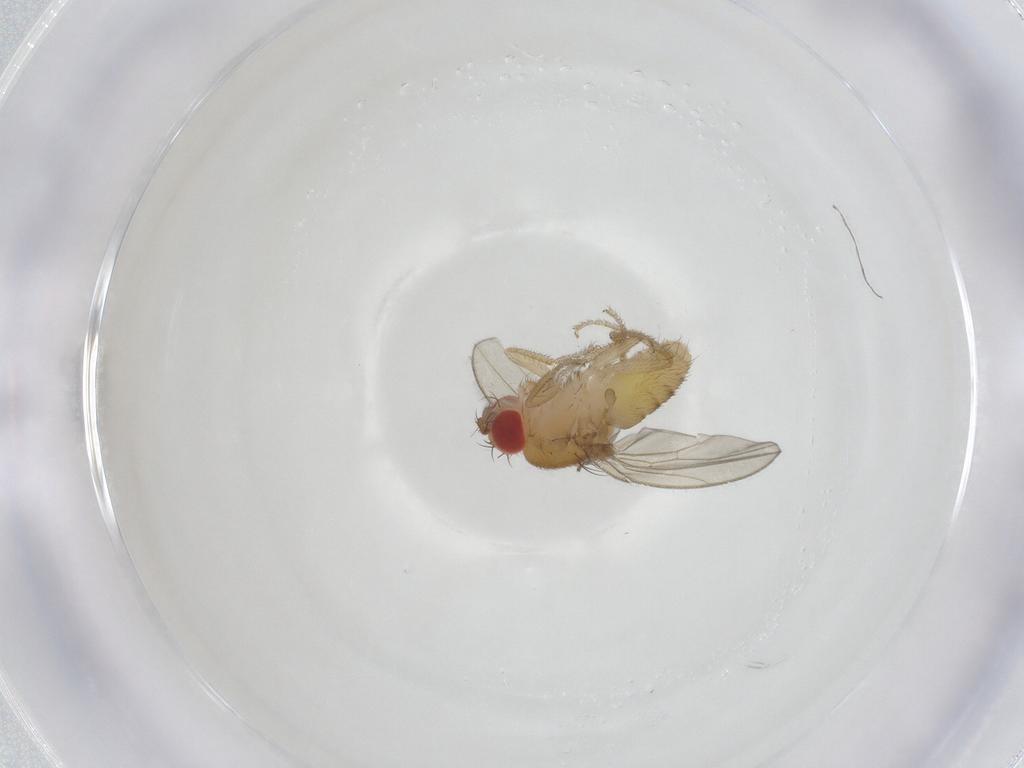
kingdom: Animalia
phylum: Arthropoda
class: Insecta
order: Diptera
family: Drosophilidae
